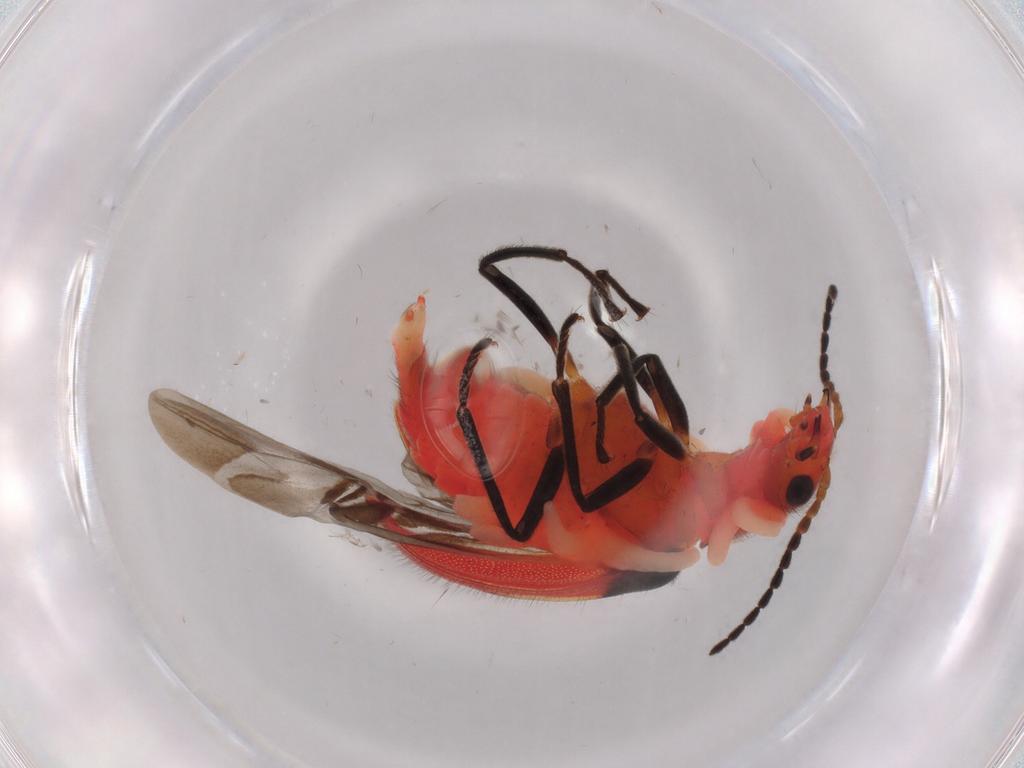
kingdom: Animalia
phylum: Arthropoda
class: Insecta
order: Coleoptera
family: Melyridae
